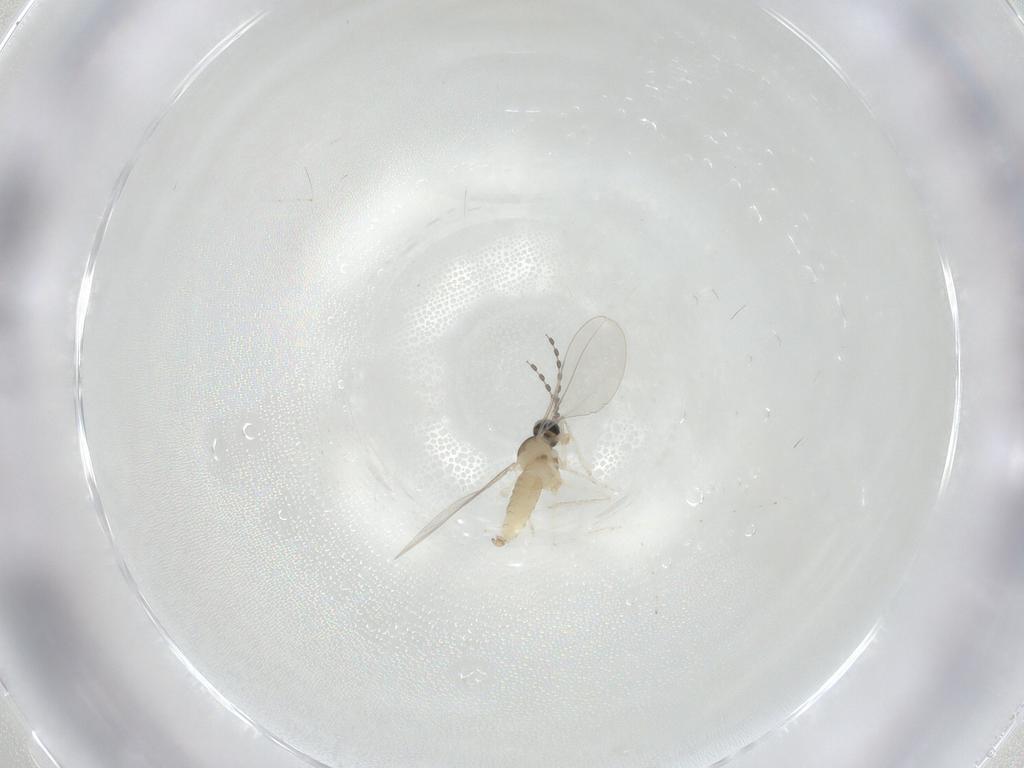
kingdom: Animalia
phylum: Arthropoda
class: Insecta
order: Diptera
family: Cecidomyiidae
